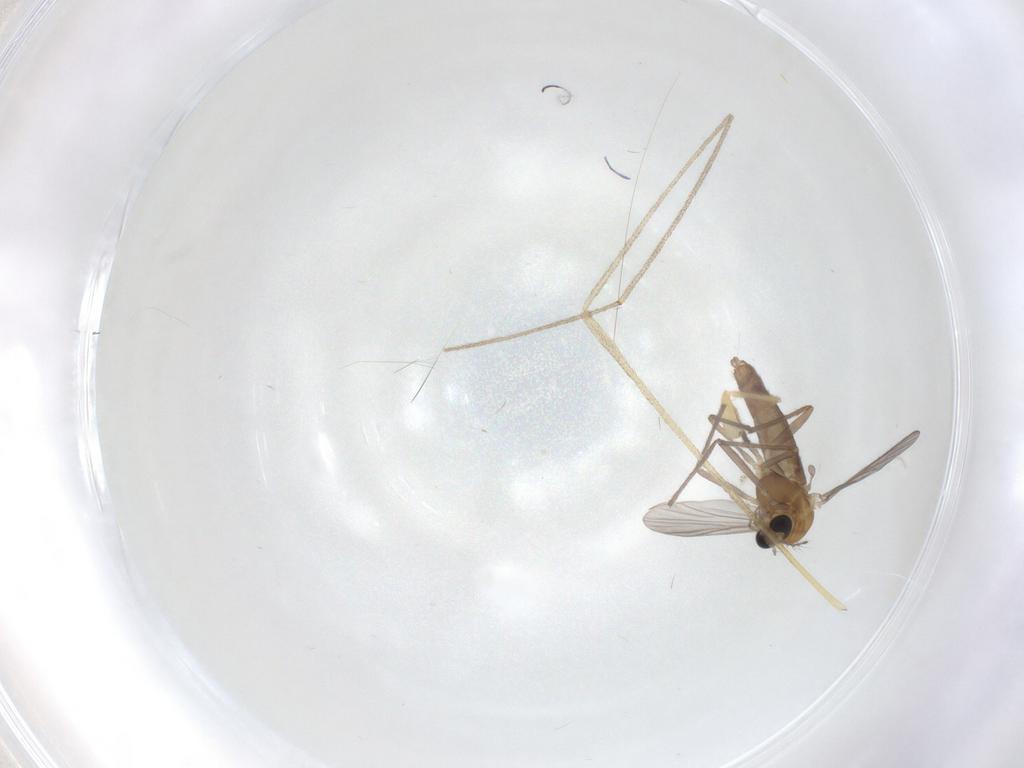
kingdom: Animalia
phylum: Arthropoda
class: Insecta
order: Diptera
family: Chironomidae
